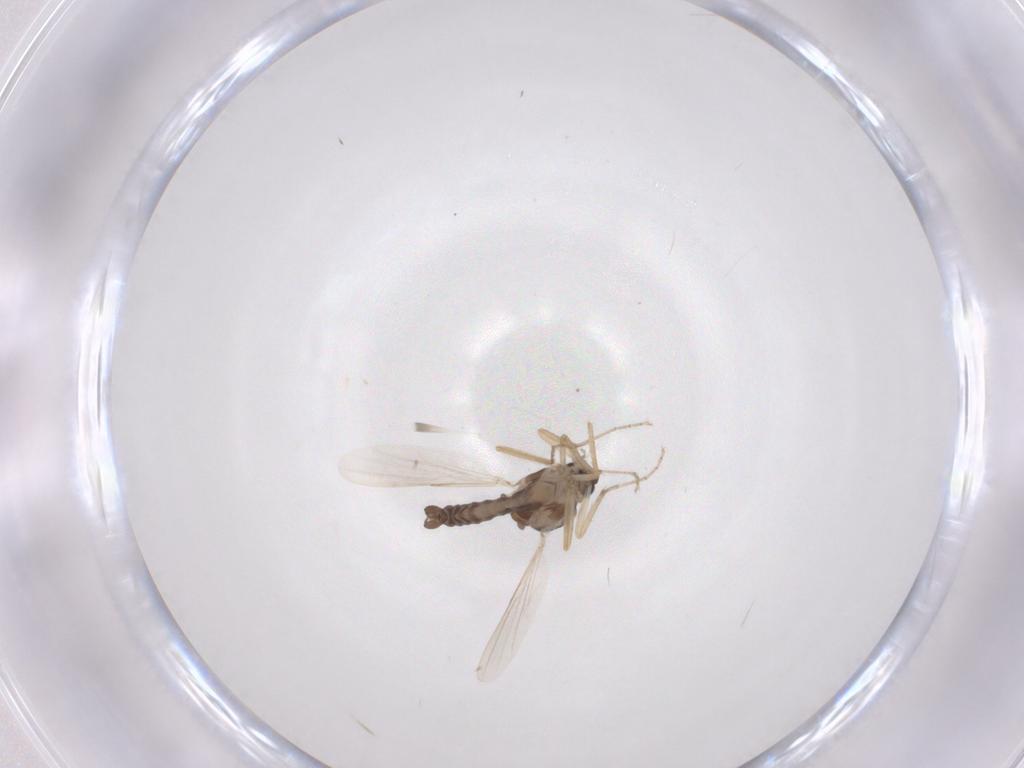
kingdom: Animalia
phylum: Arthropoda
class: Insecta
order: Diptera
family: Ceratopogonidae
